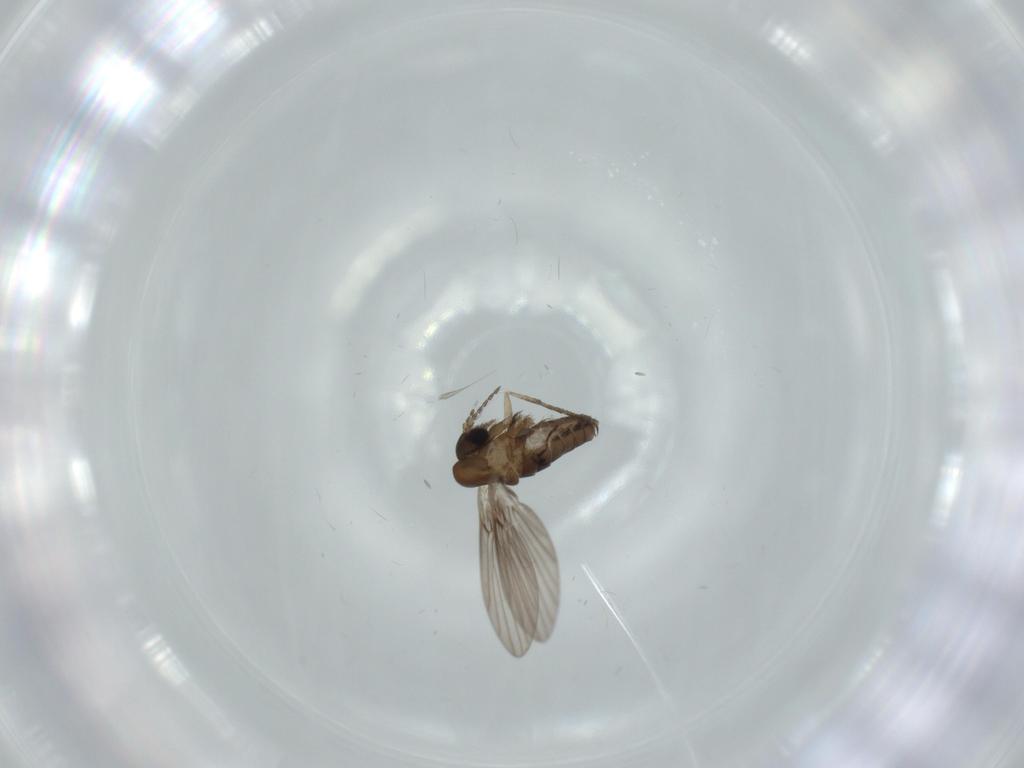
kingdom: Animalia
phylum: Arthropoda
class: Insecta
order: Diptera
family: Psychodidae
